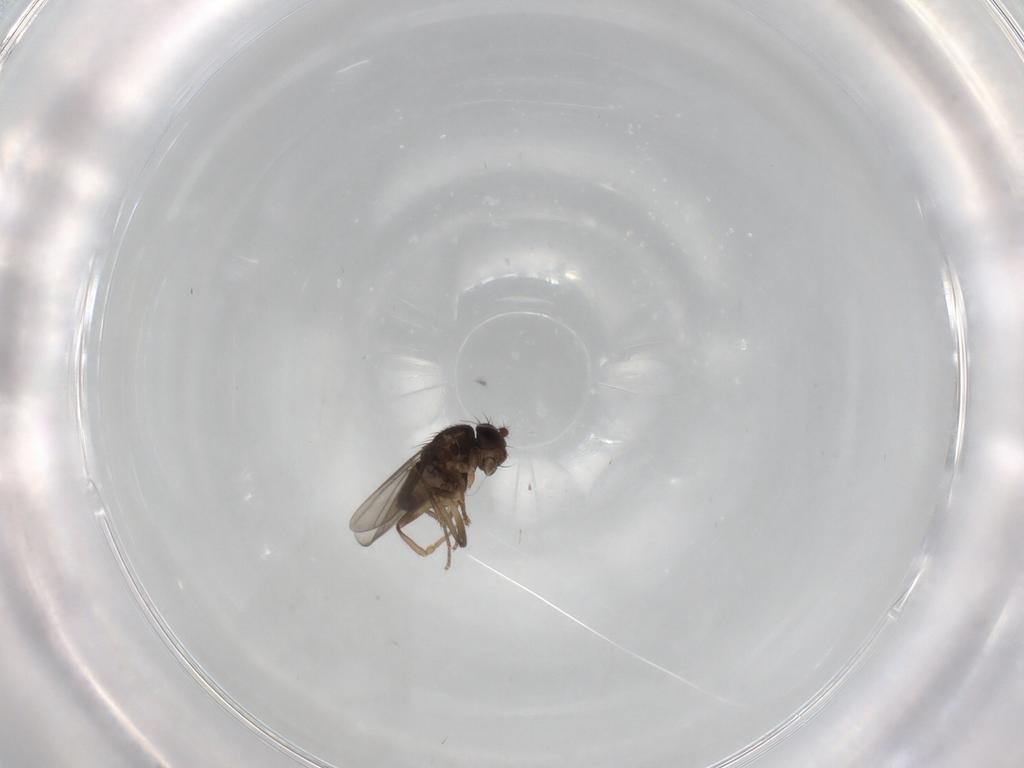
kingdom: Animalia
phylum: Arthropoda
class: Insecta
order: Diptera
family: Sphaeroceridae
